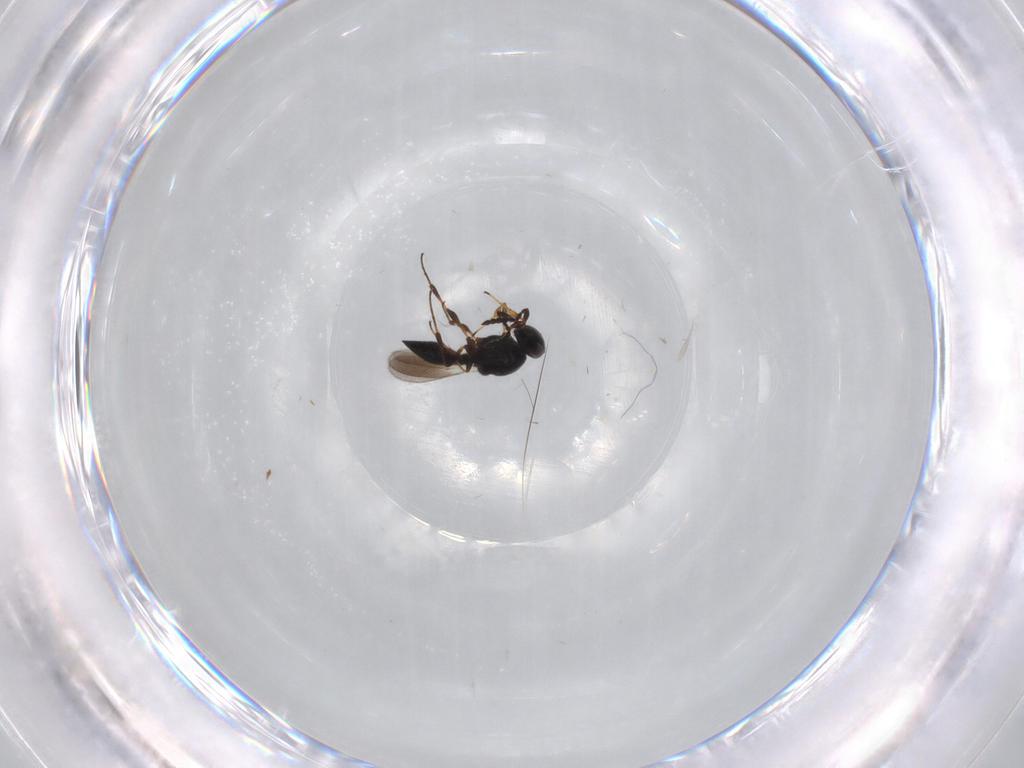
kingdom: Animalia
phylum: Arthropoda
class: Insecta
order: Hymenoptera
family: Platygastridae
